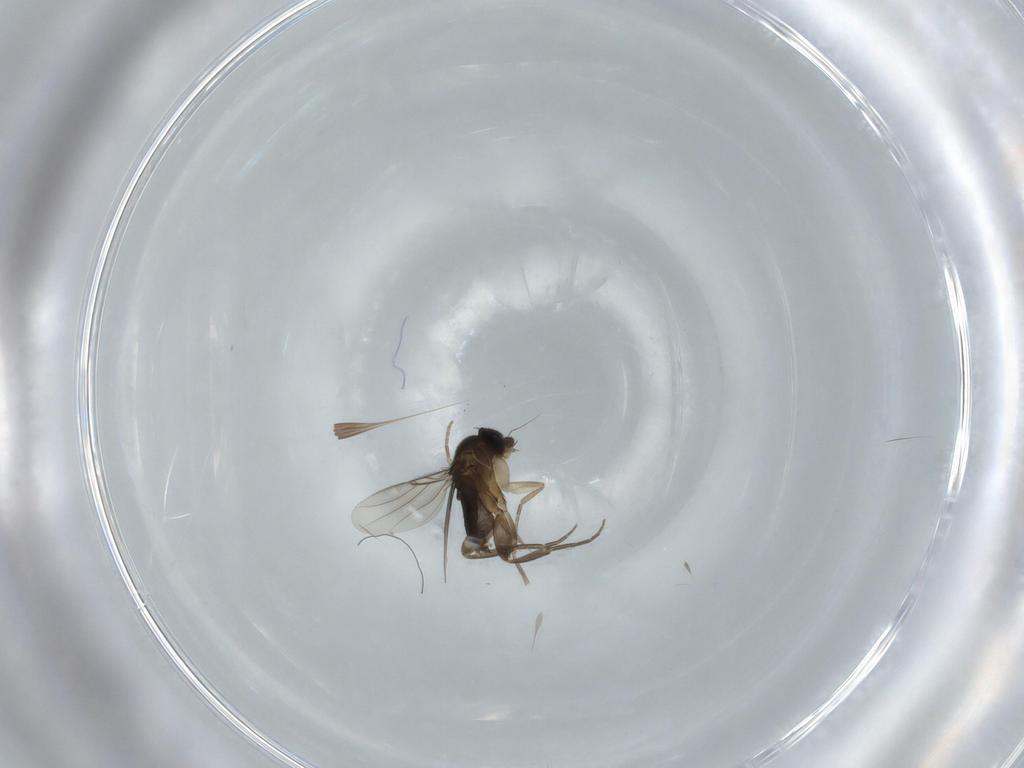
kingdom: Animalia
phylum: Arthropoda
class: Insecta
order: Diptera
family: Phoridae
